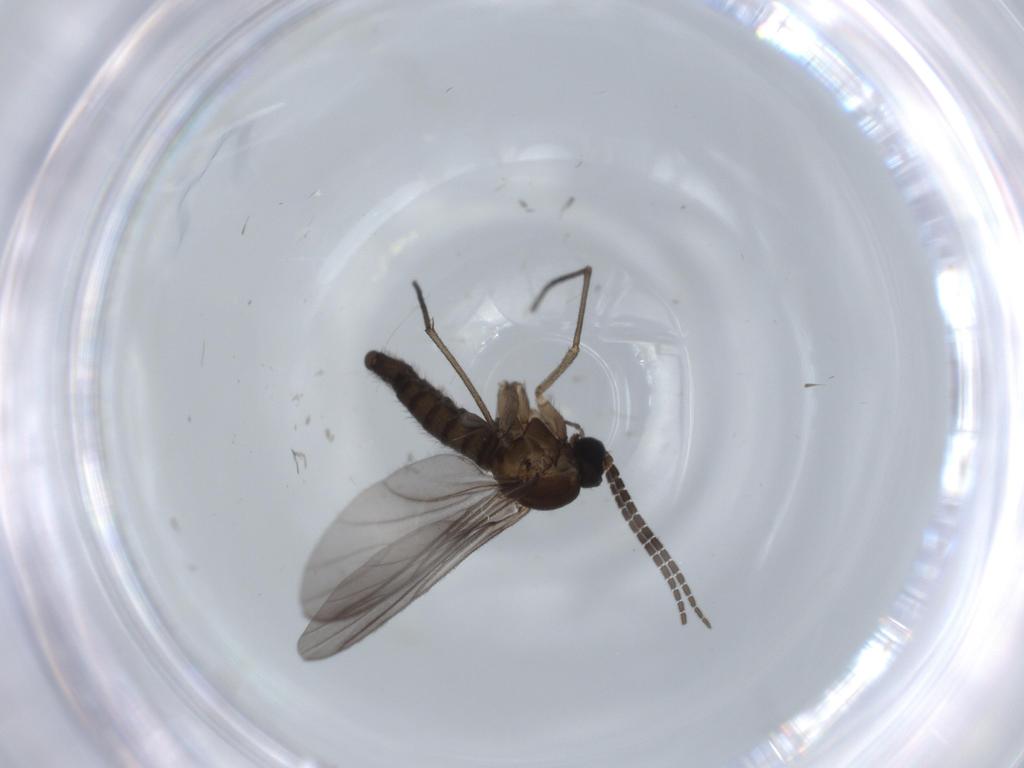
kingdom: Animalia
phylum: Arthropoda
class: Insecta
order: Diptera
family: Sciaridae
